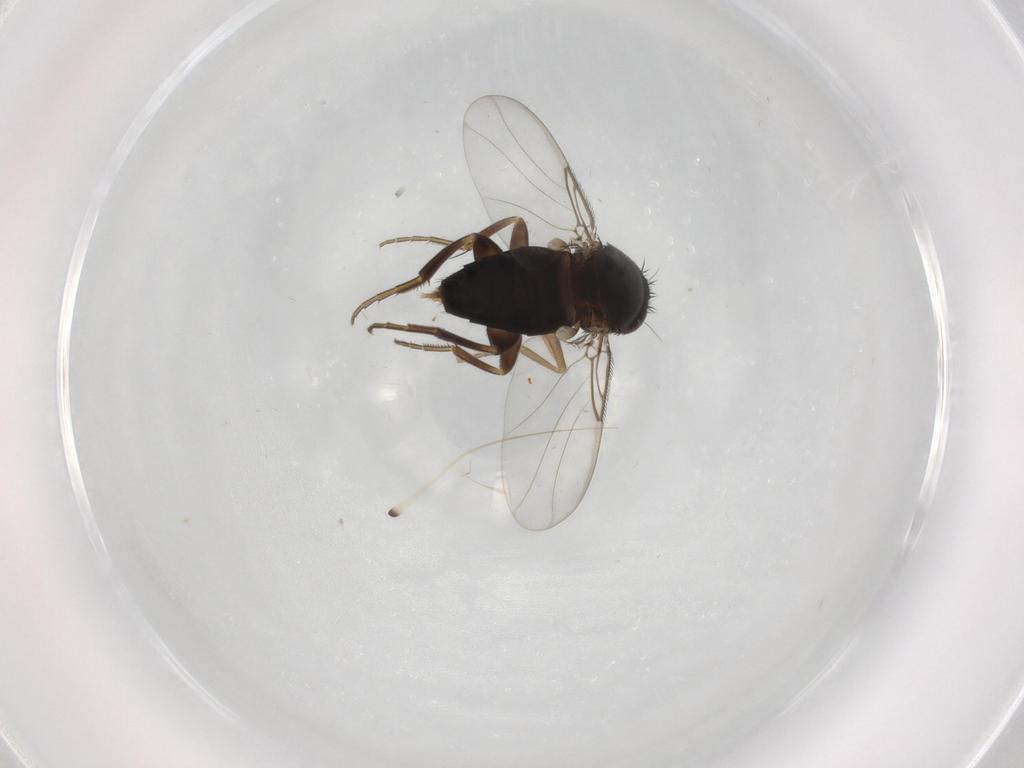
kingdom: Animalia
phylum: Arthropoda
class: Insecta
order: Diptera
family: Phoridae
